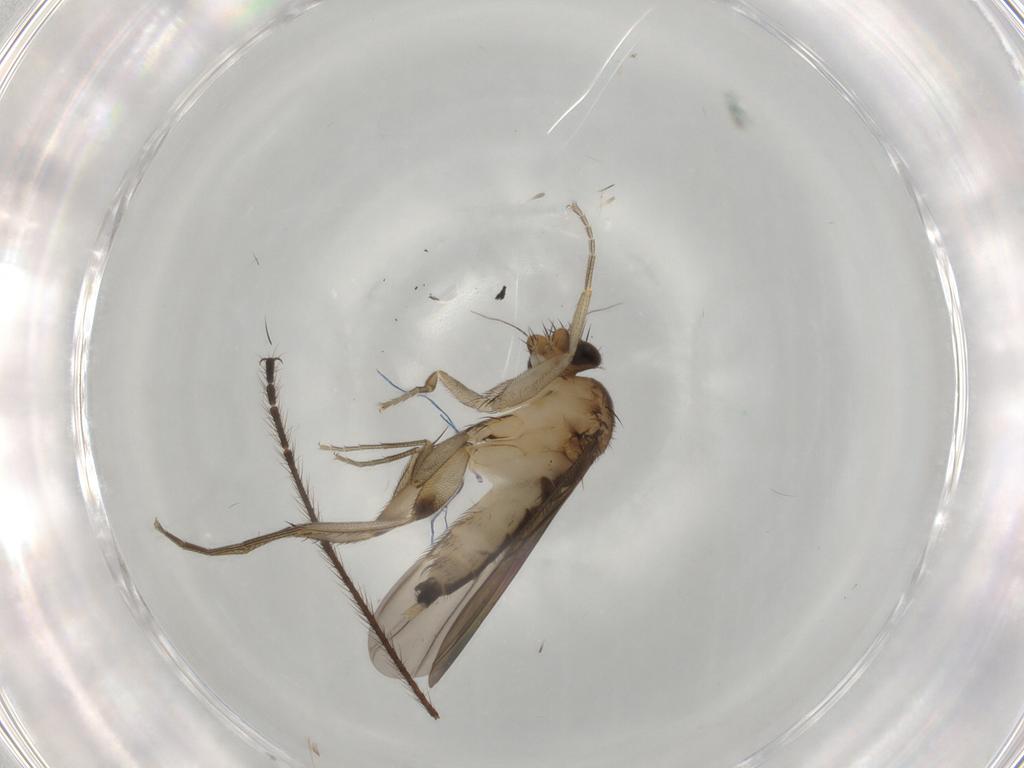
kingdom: Animalia
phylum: Arthropoda
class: Insecta
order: Diptera
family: Phoridae
